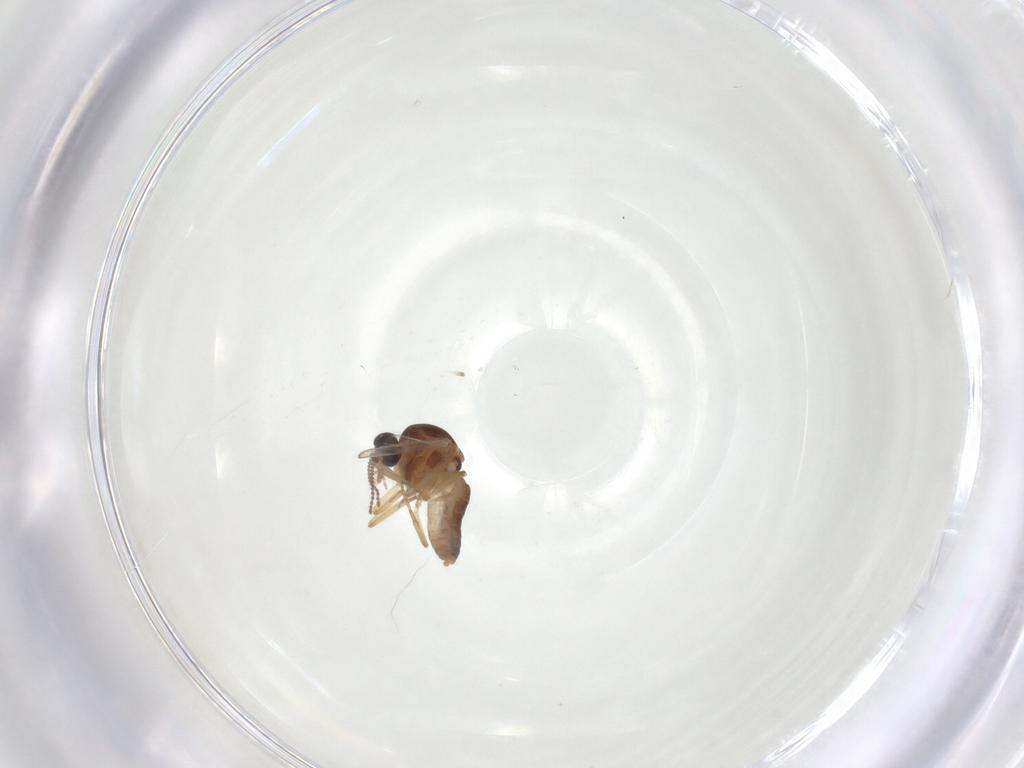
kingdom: Animalia
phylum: Arthropoda
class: Insecta
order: Diptera
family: Ceratopogonidae
